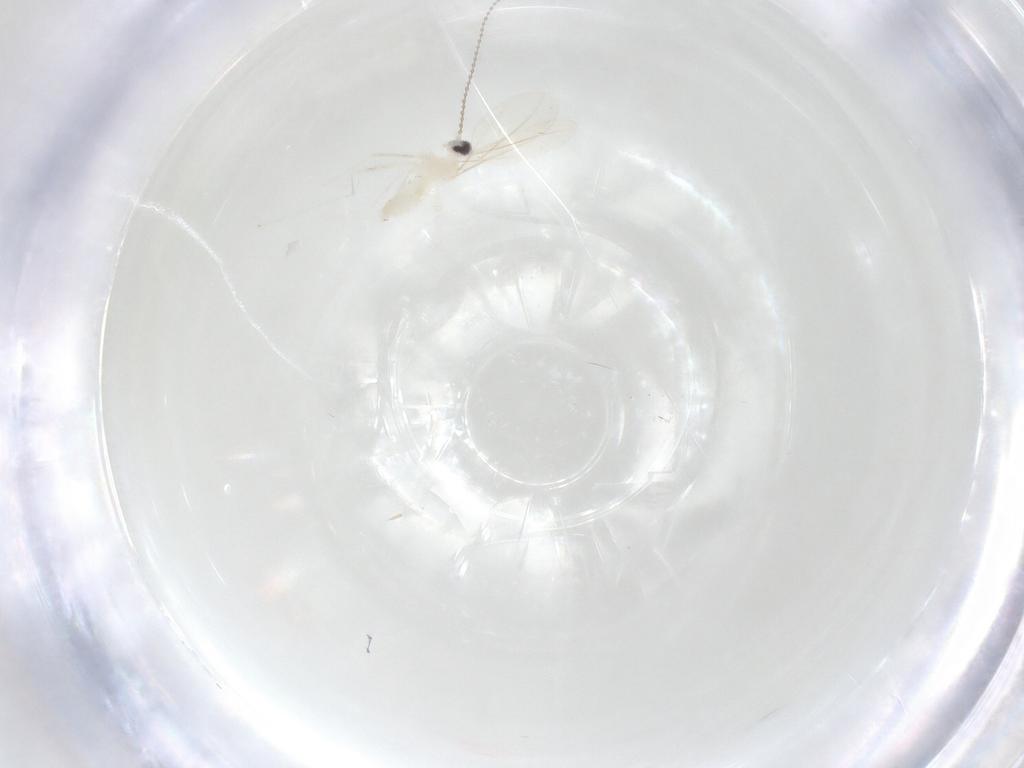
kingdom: Animalia
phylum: Arthropoda
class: Insecta
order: Diptera
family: Ceratopogonidae
